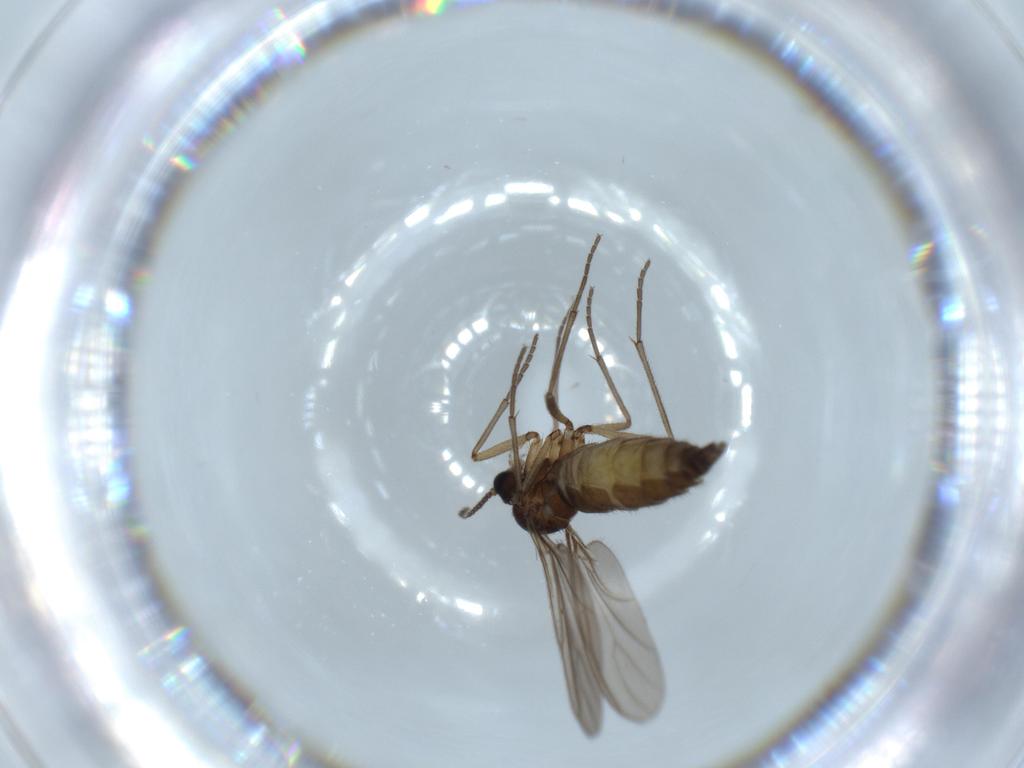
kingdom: Animalia
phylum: Arthropoda
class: Insecta
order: Diptera
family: Sciaridae
